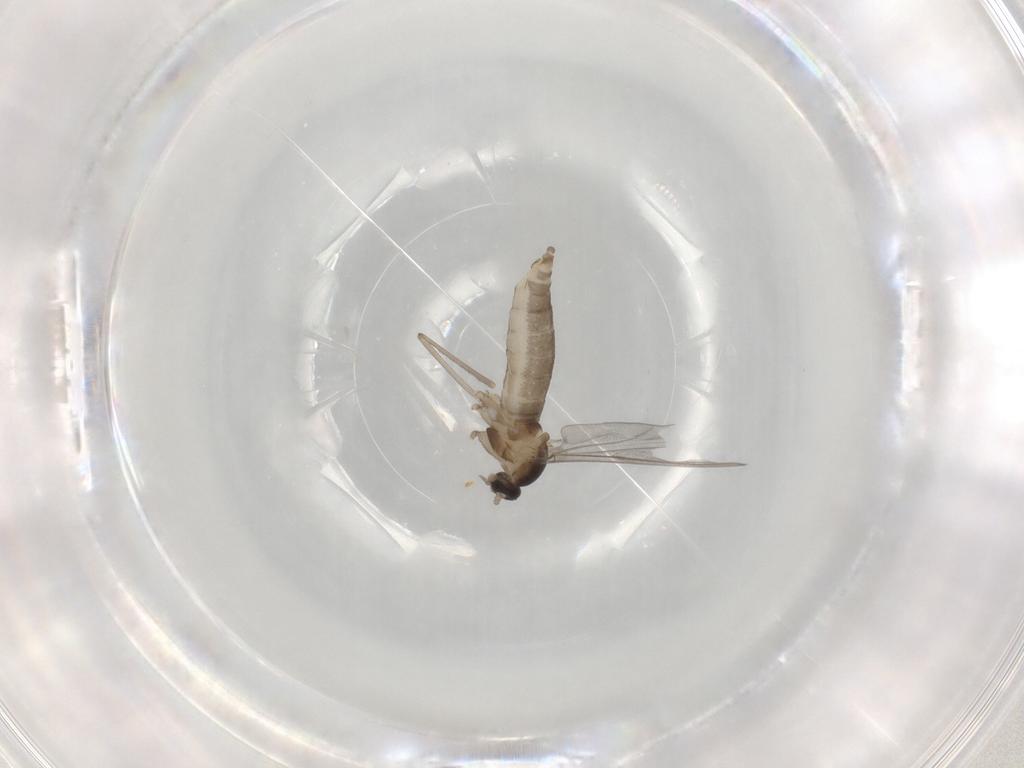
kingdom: Animalia
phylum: Arthropoda
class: Insecta
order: Diptera
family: Cecidomyiidae
